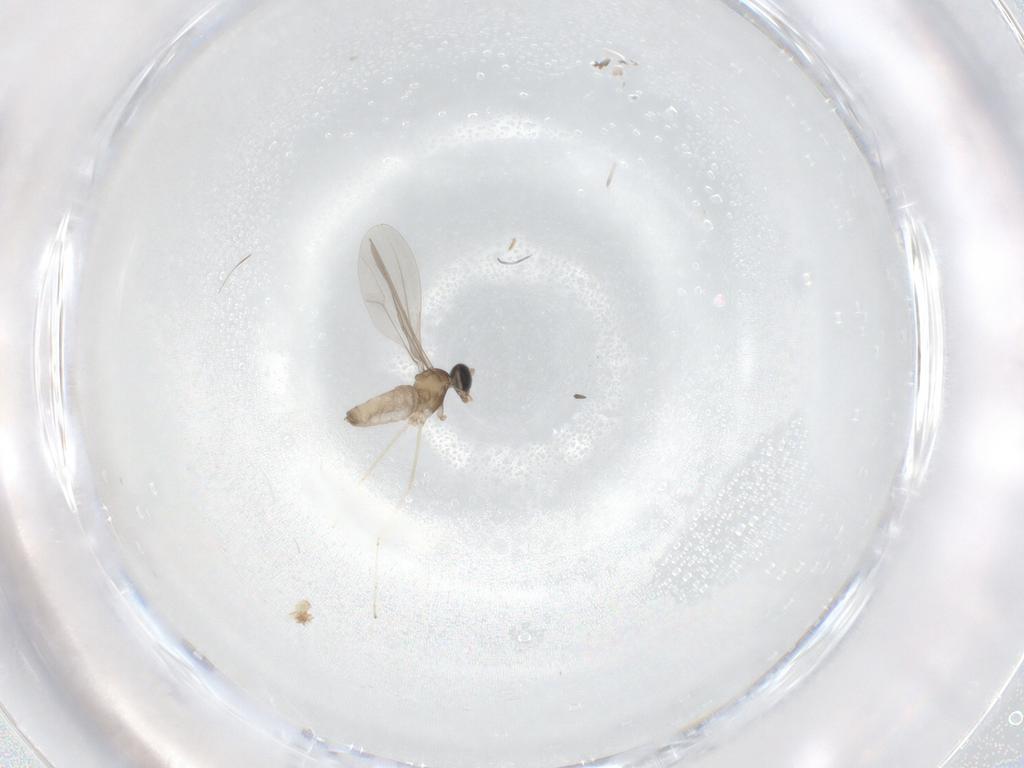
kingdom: Animalia
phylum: Arthropoda
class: Insecta
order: Diptera
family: Cecidomyiidae
